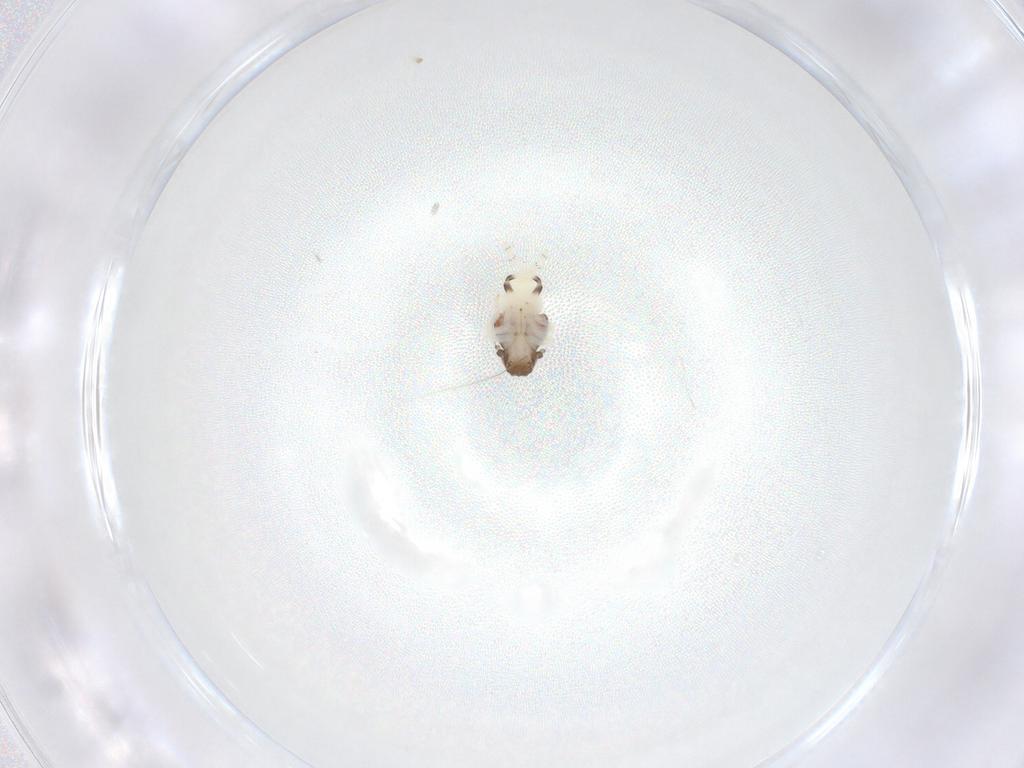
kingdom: Animalia
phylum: Arthropoda
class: Insecta
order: Hemiptera
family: Nogodinidae
